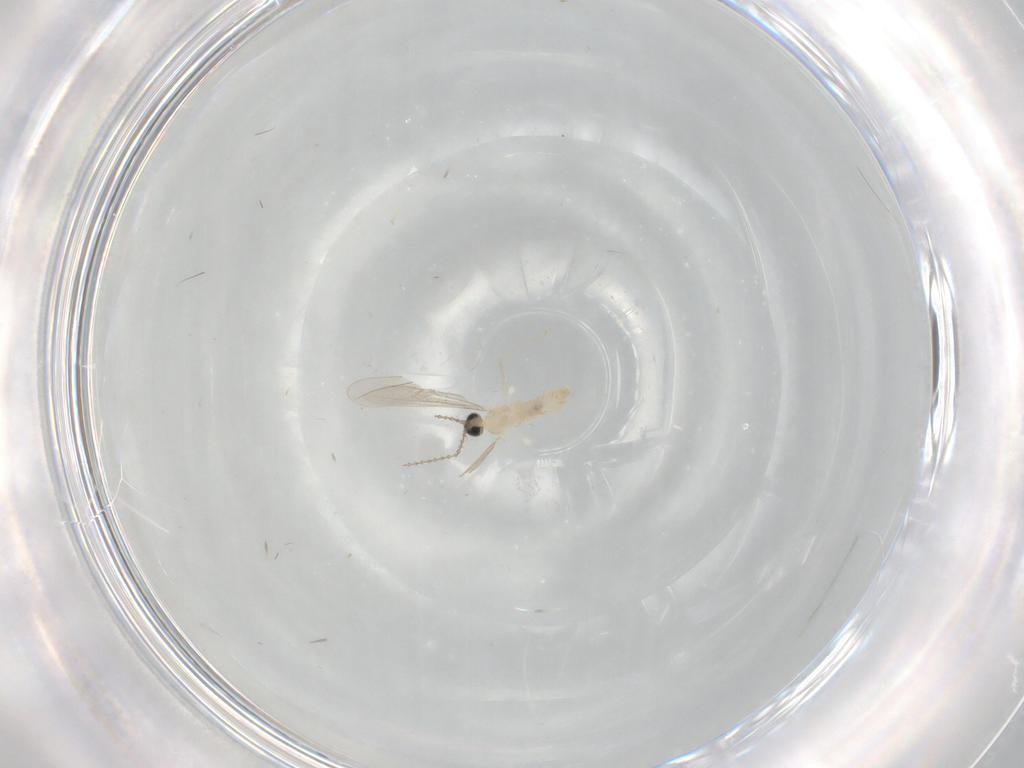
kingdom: Animalia
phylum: Arthropoda
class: Insecta
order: Diptera
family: Cecidomyiidae
